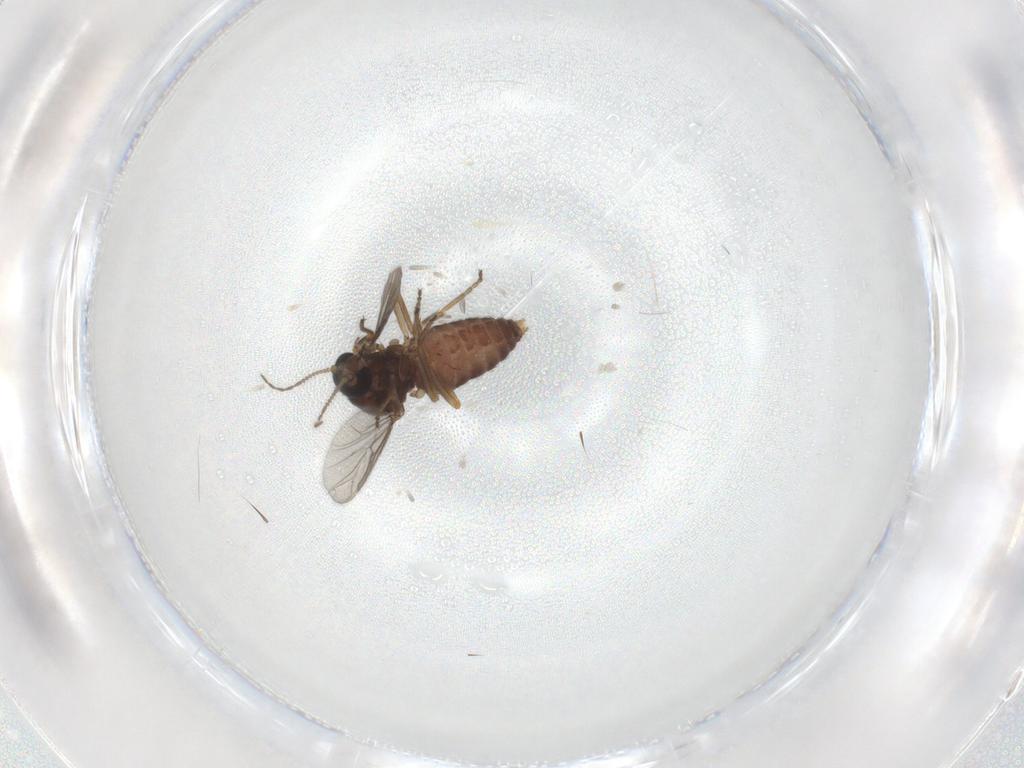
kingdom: Animalia
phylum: Arthropoda
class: Insecta
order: Diptera
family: Ceratopogonidae
